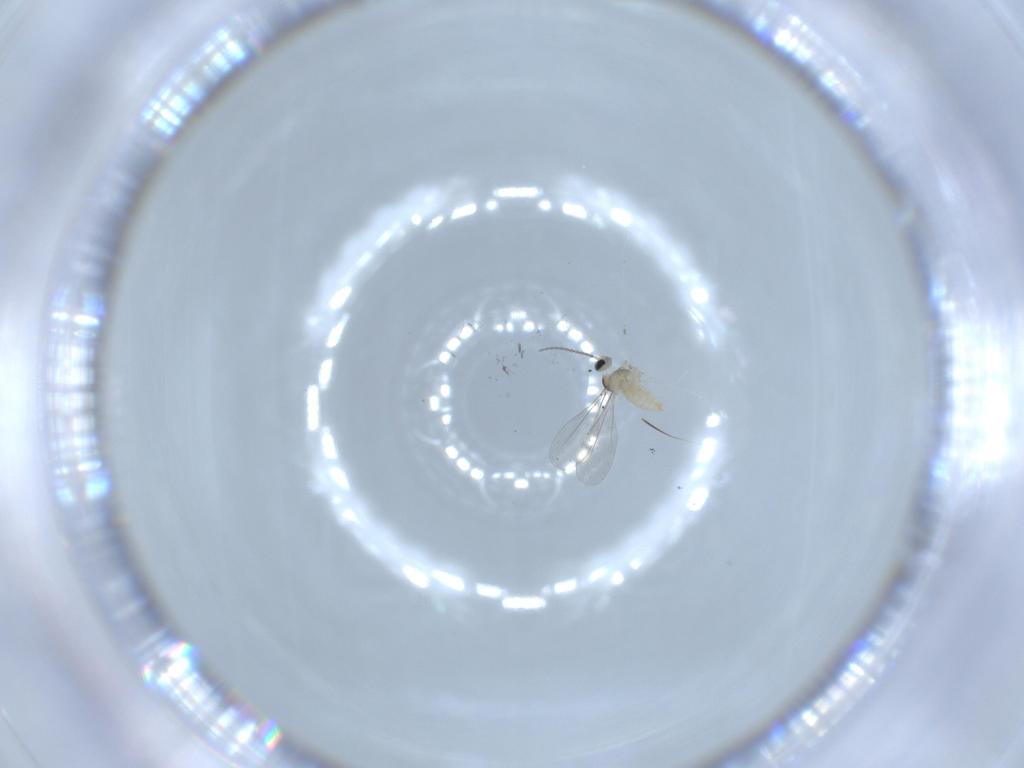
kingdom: Animalia
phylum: Arthropoda
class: Insecta
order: Diptera
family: Cecidomyiidae
